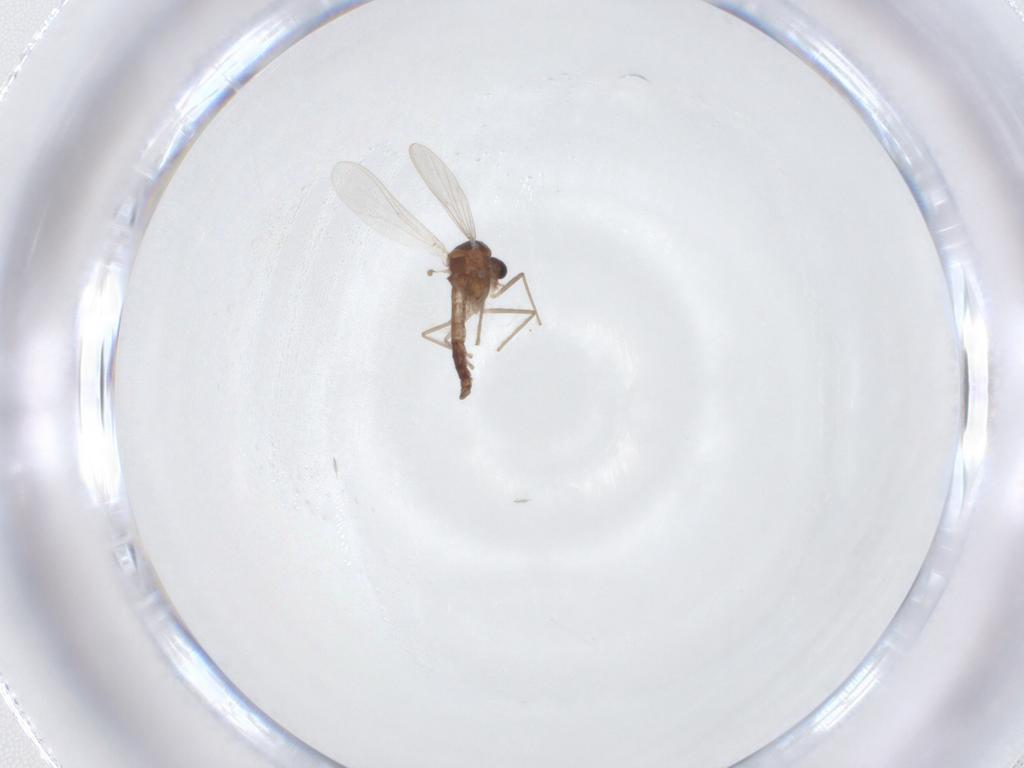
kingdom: Animalia
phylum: Arthropoda
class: Insecta
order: Diptera
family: Chironomidae
